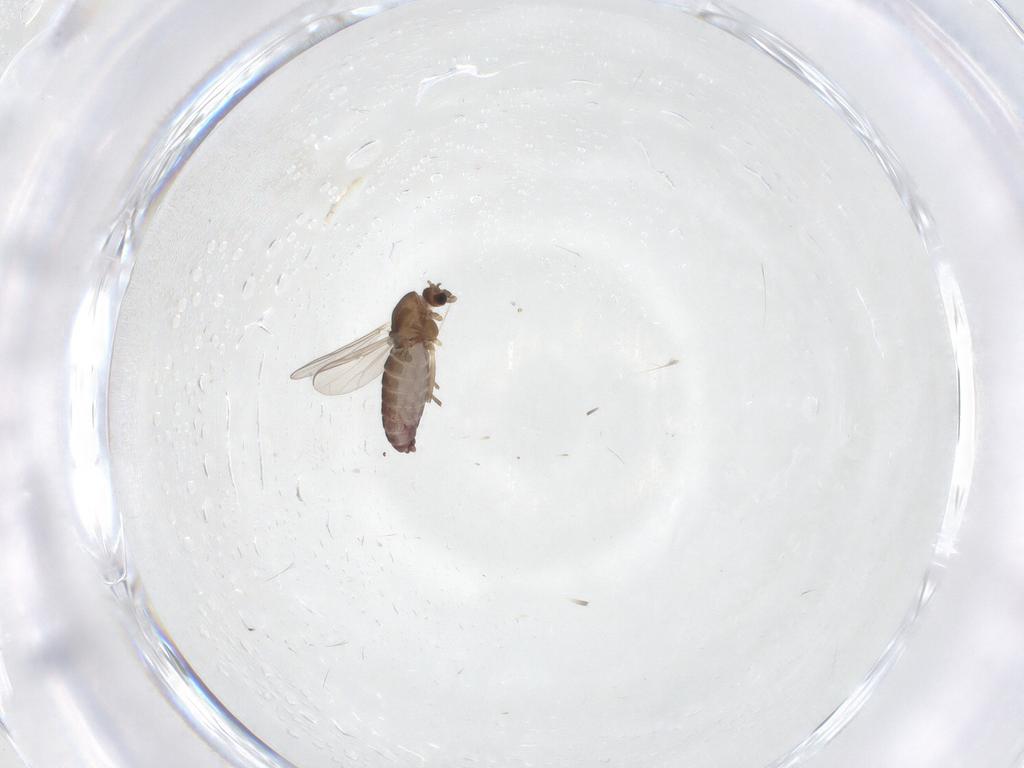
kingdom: Animalia
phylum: Arthropoda
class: Insecta
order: Diptera
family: Chironomidae
